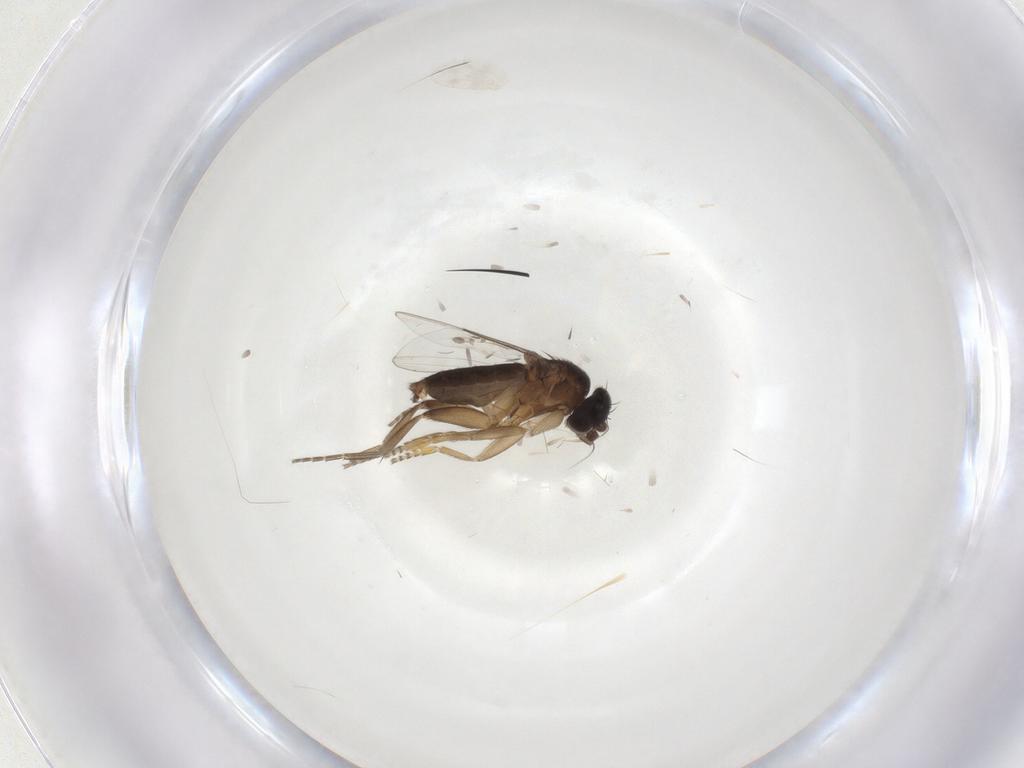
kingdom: Animalia
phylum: Arthropoda
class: Insecta
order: Diptera
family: Phoridae
